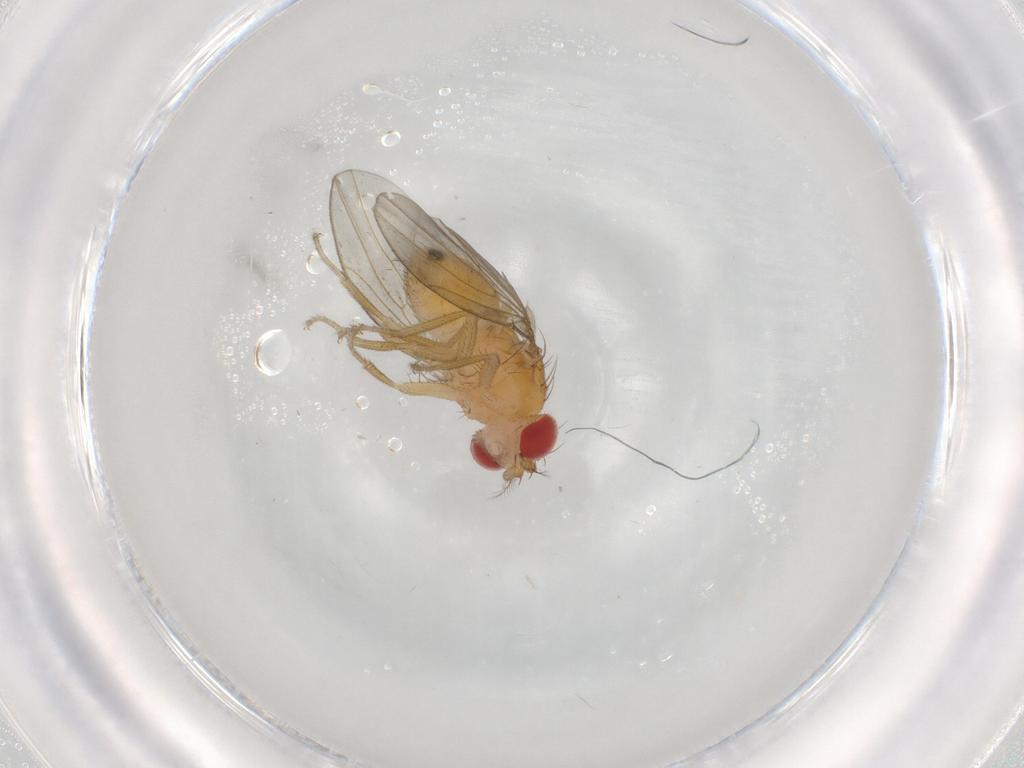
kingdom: Animalia
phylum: Arthropoda
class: Insecta
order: Diptera
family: Drosophilidae
